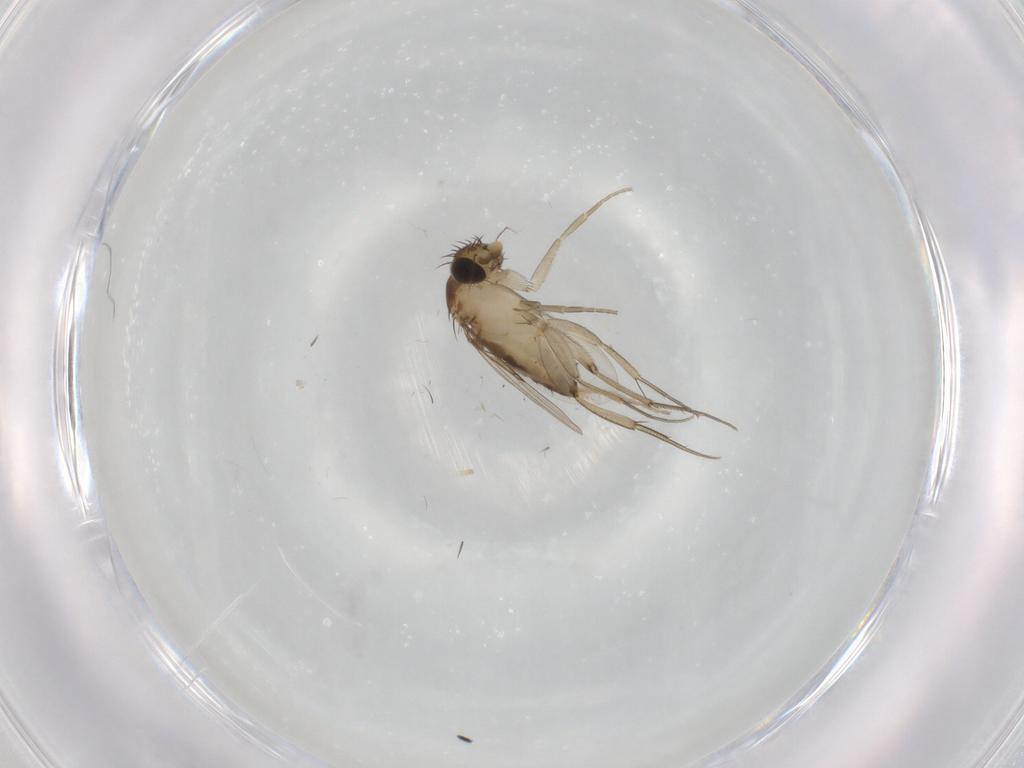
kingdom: Animalia
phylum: Arthropoda
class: Insecta
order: Diptera
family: Phoridae
